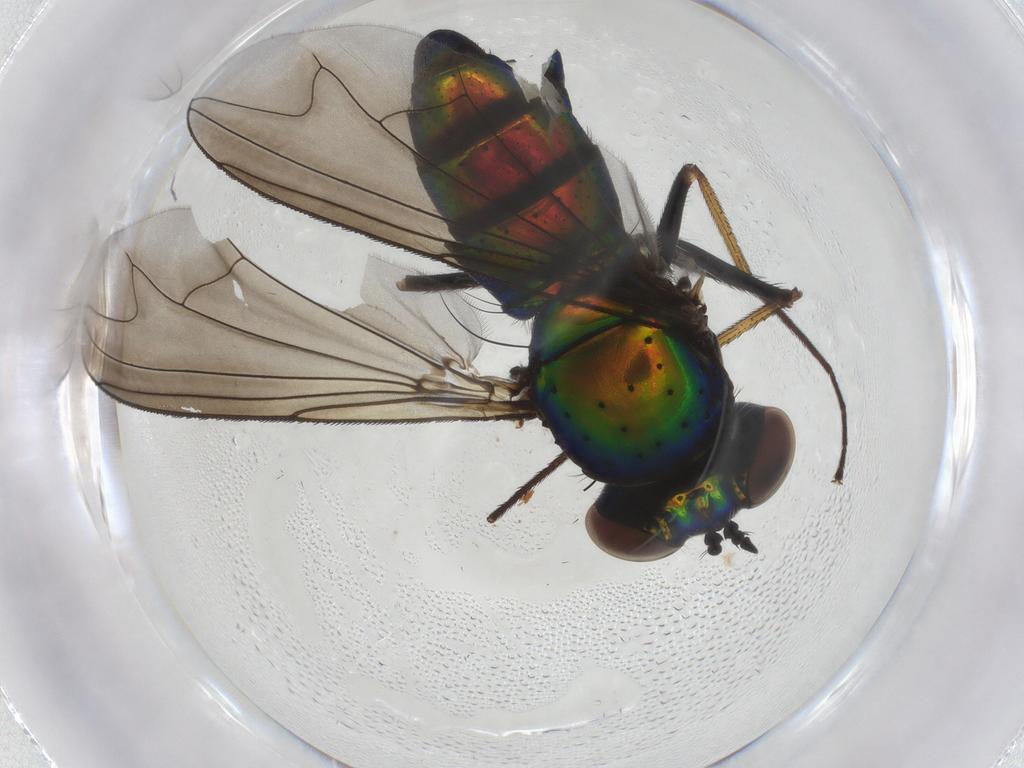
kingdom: Animalia
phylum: Arthropoda
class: Insecta
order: Diptera
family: Dolichopodidae
